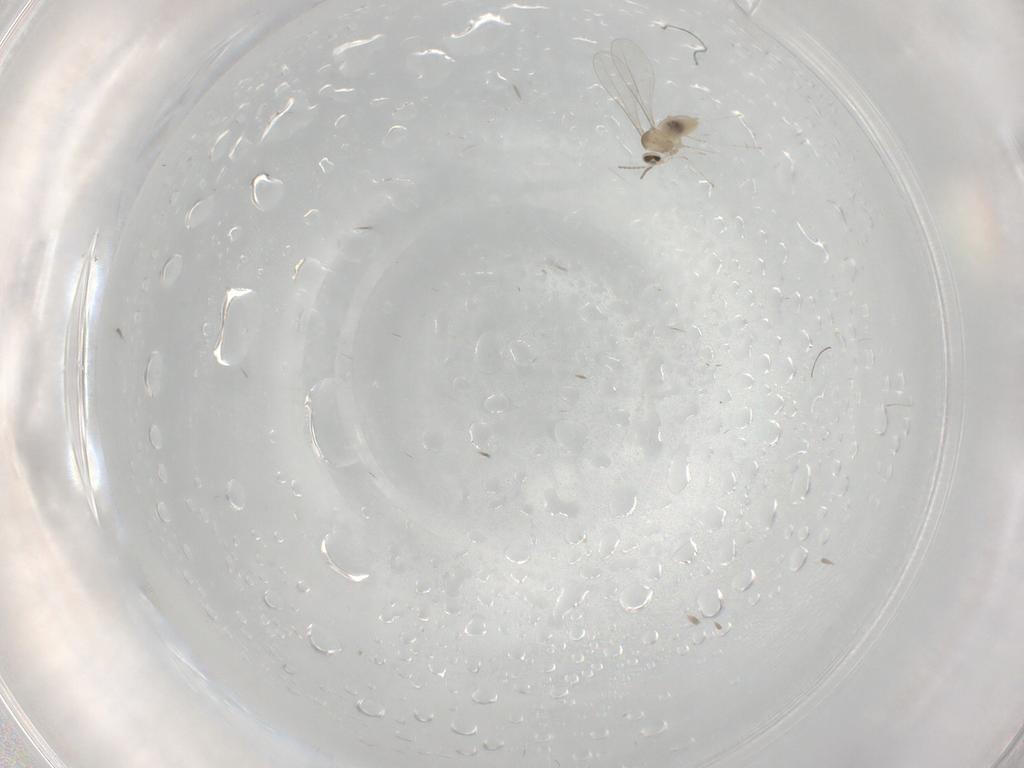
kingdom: Animalia
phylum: Arthropoda
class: Insecta
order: Diptera
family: Cecidomyiidae
